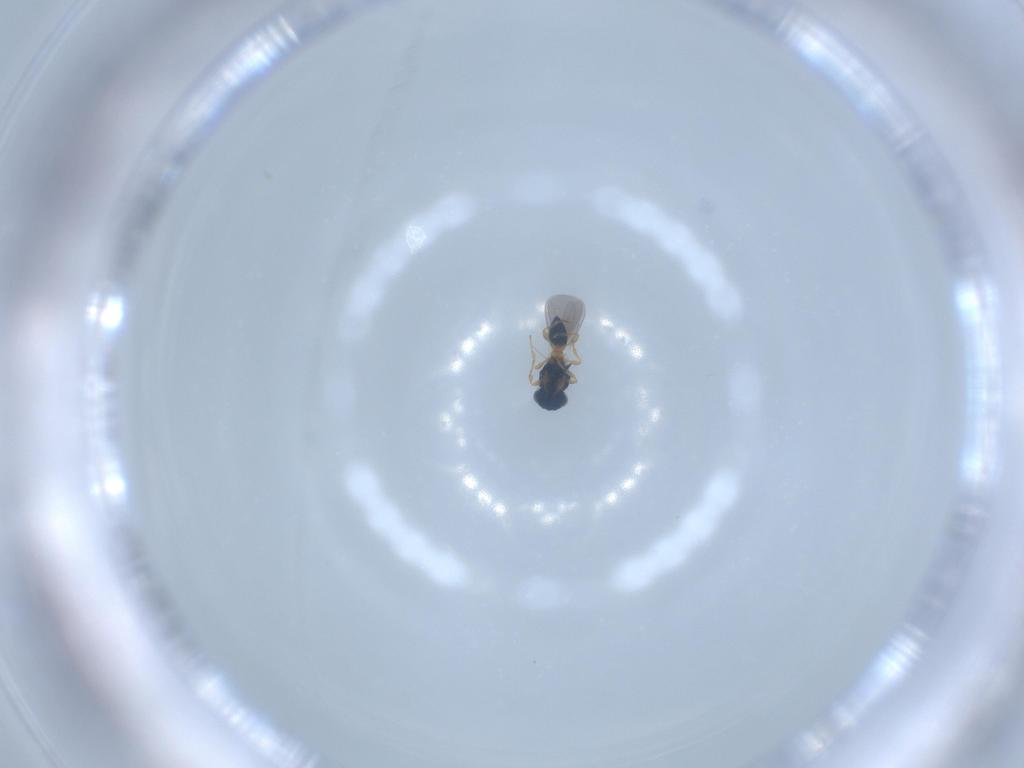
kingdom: Animalia
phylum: Arthropoda
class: Insecta
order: Hymenoptera
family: Platygastridae
